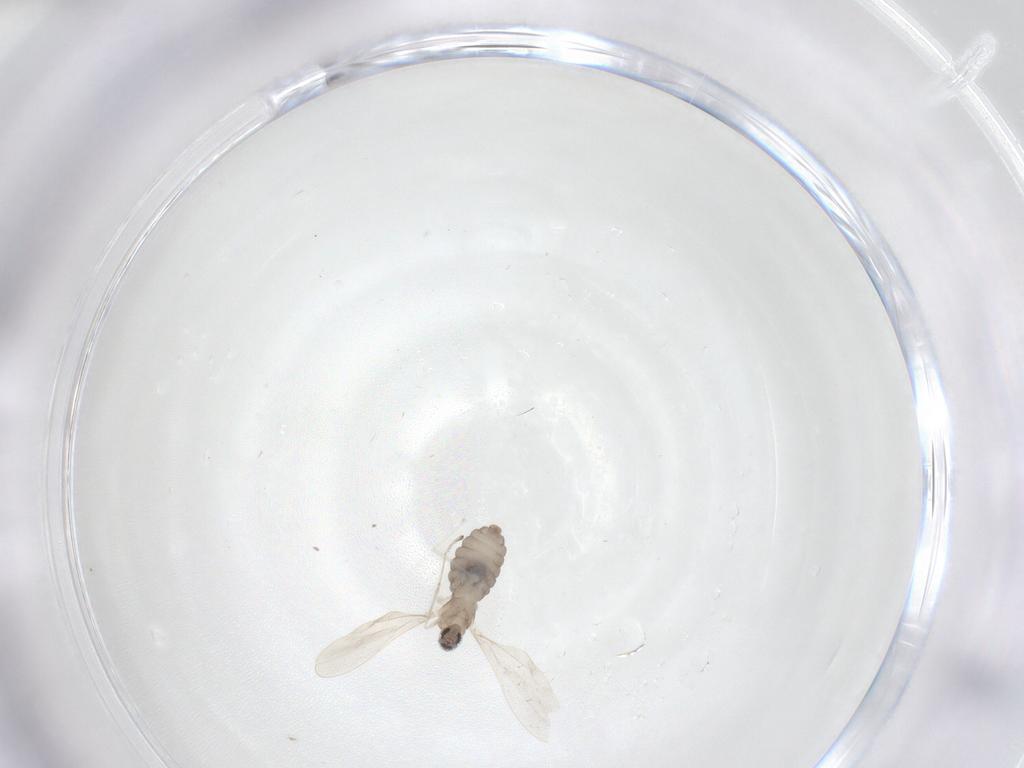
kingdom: Animalia
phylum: Arthropoda
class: Insecta
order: Diptera
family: Cecidomyiidae
